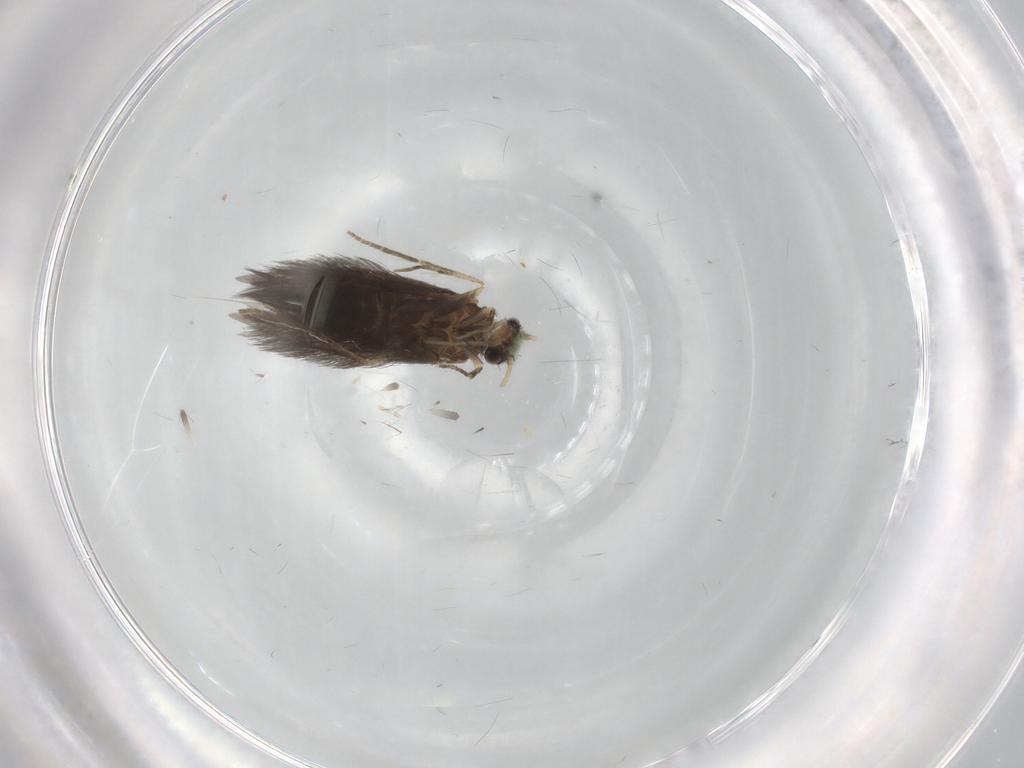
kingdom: Animalia
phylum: Arthropoda
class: Insecta
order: Trichoptera
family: Hydroptilidae
